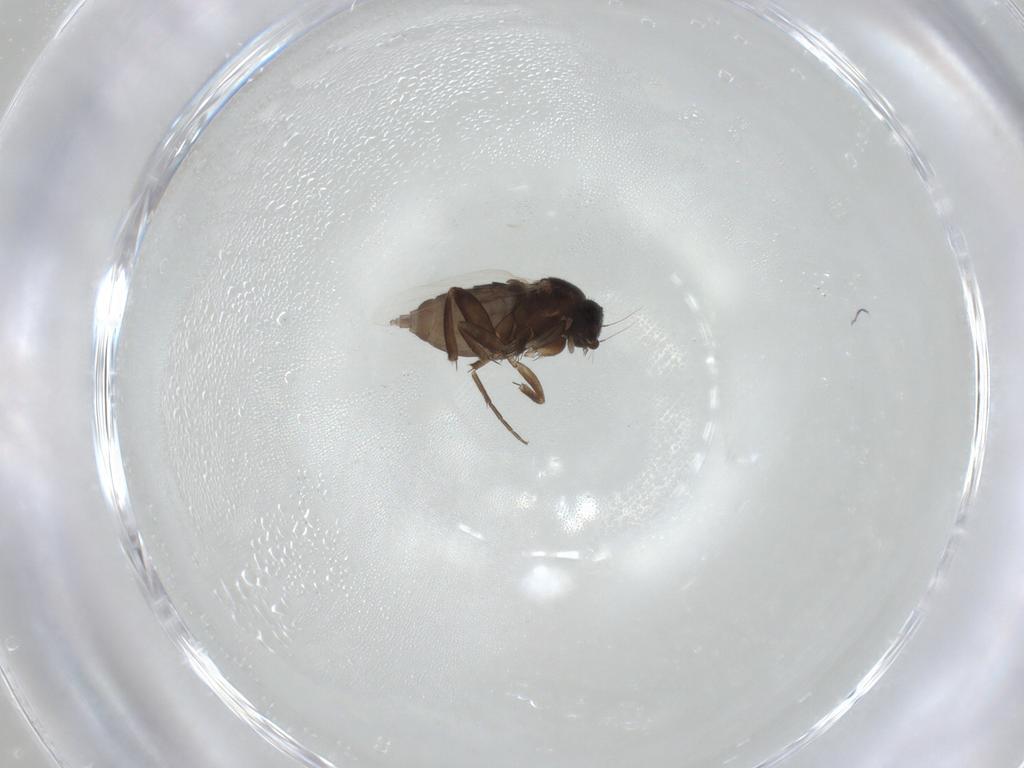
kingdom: Animalia
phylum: Arthropoda
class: Insecta
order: Diptera
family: Phoridae
